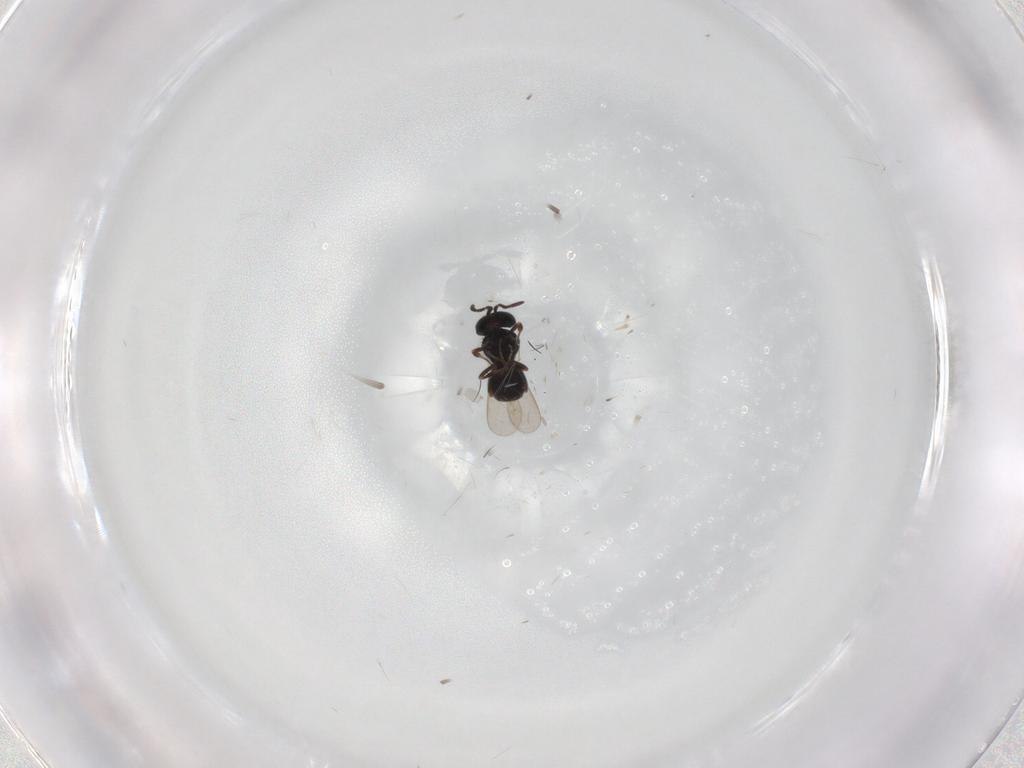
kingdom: Animalia
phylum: Arthropoda
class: Insecta
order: Hymenoptera
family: Scelionidae
